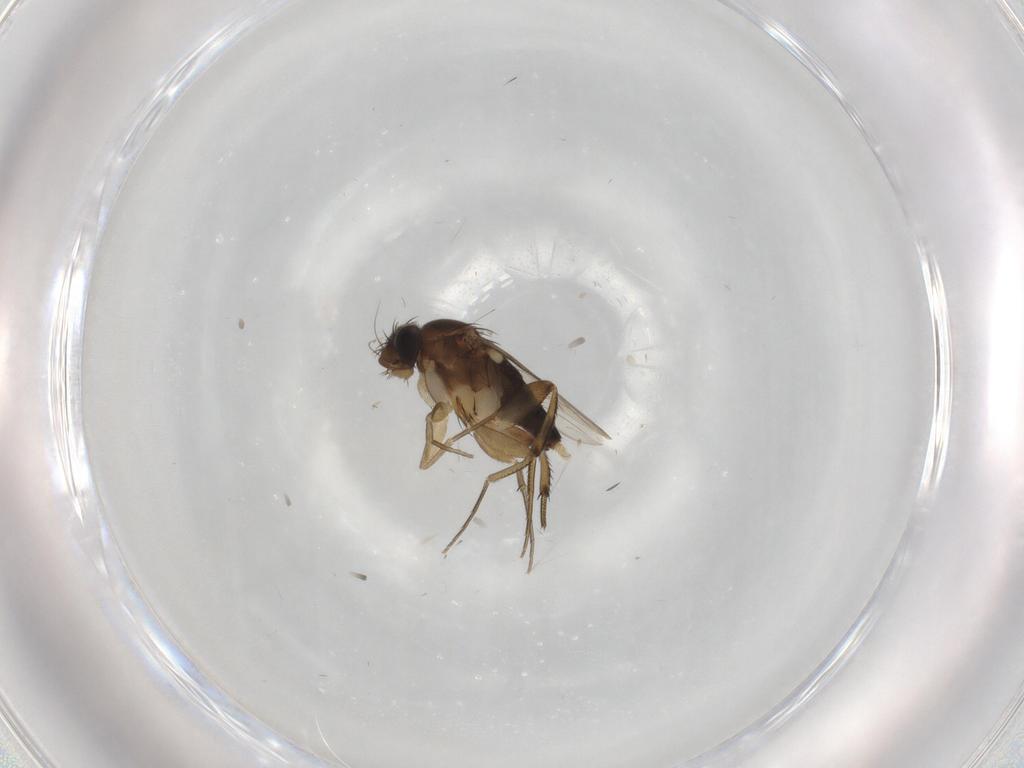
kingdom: Animalia
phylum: Arthropoda
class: Insecta
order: Diptera
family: Phoridae
